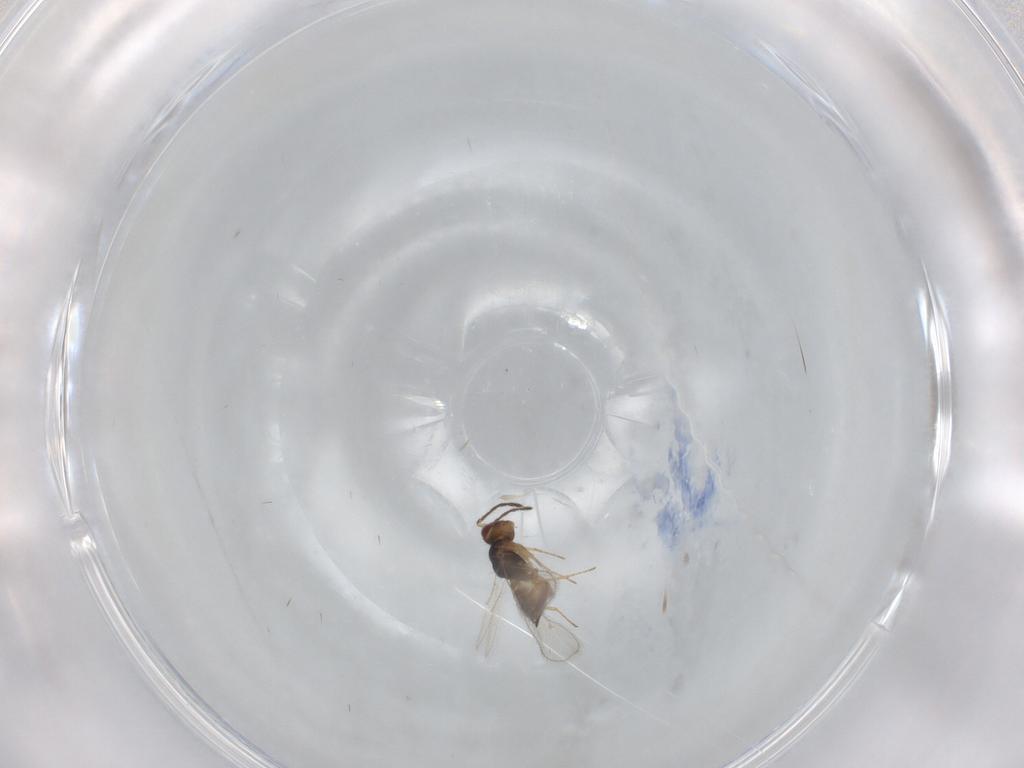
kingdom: Animalia
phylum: Arthropoda
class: Insecta
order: Hymenoptera
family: Eulophidae
